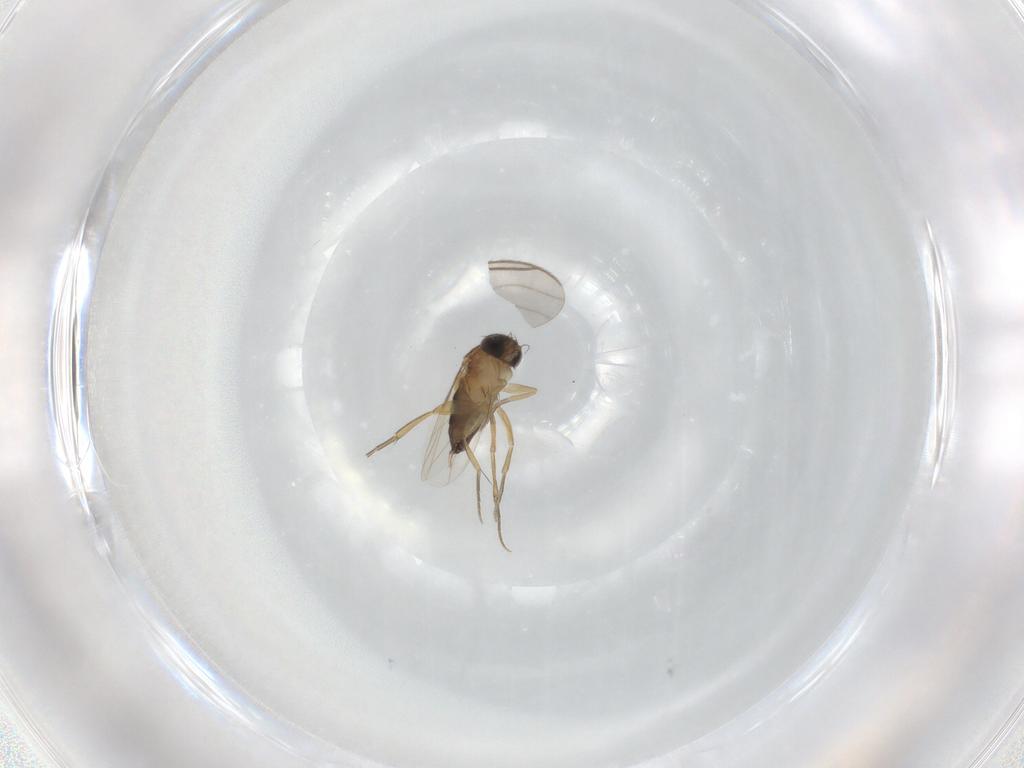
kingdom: Animalia
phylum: Arthropoda
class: Insecta
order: Diptera
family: Sciaridae
